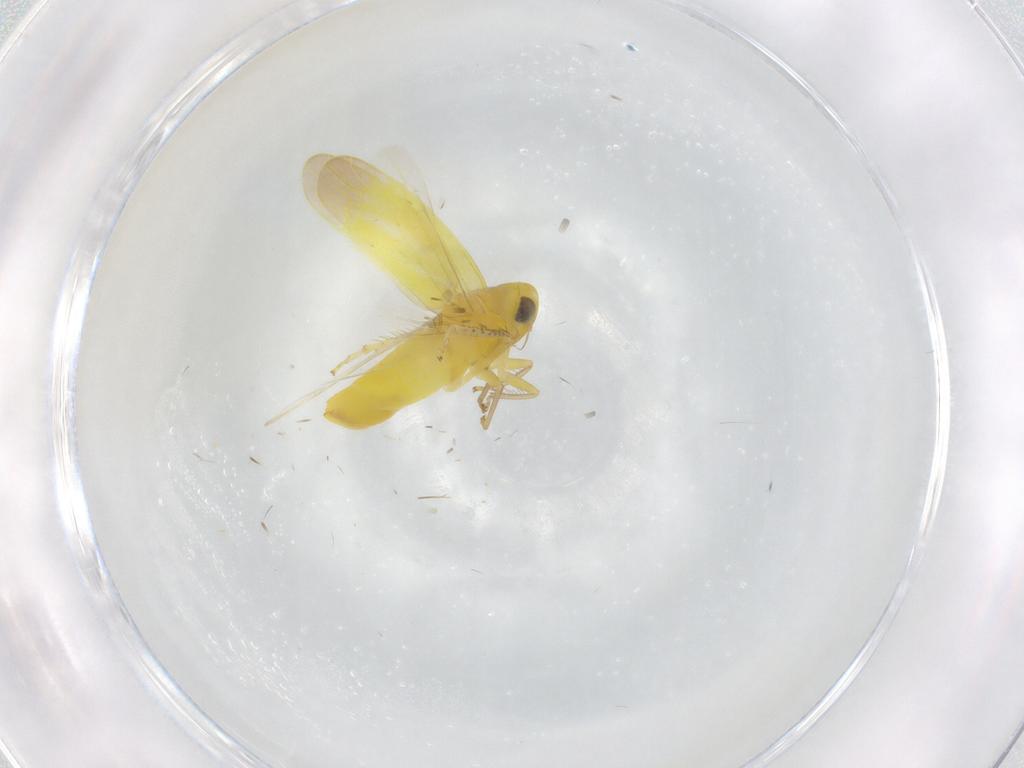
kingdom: Animalia
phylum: Arthropoda
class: Insecta
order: Hemiptera
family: Aphididae
